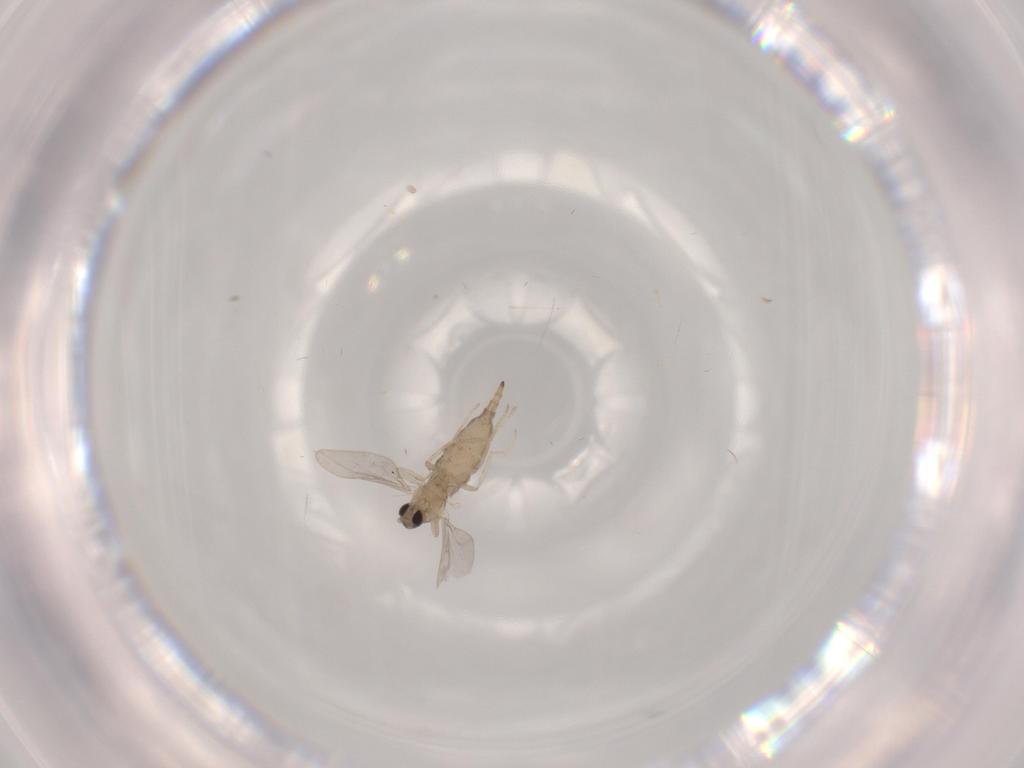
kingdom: Animalia
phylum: Arthropoda
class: Insecta
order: Diptera
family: Cecidomyiidae
